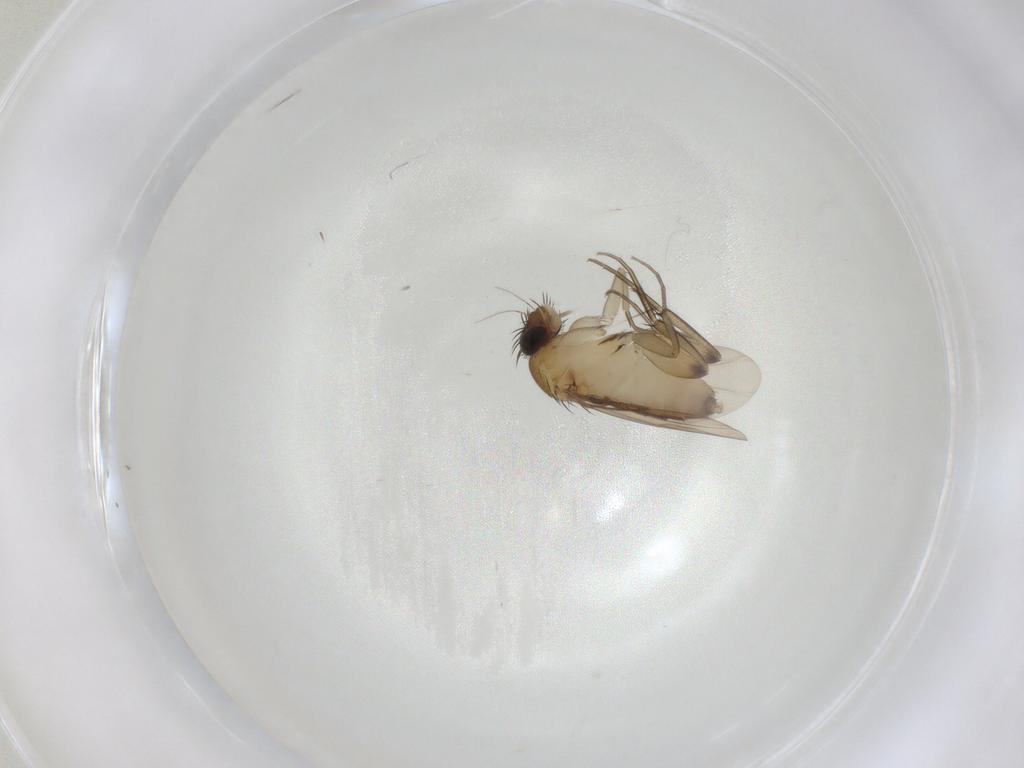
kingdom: Animalia
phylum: Arthropoda
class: Insecta
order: Diptera
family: Phoridae
